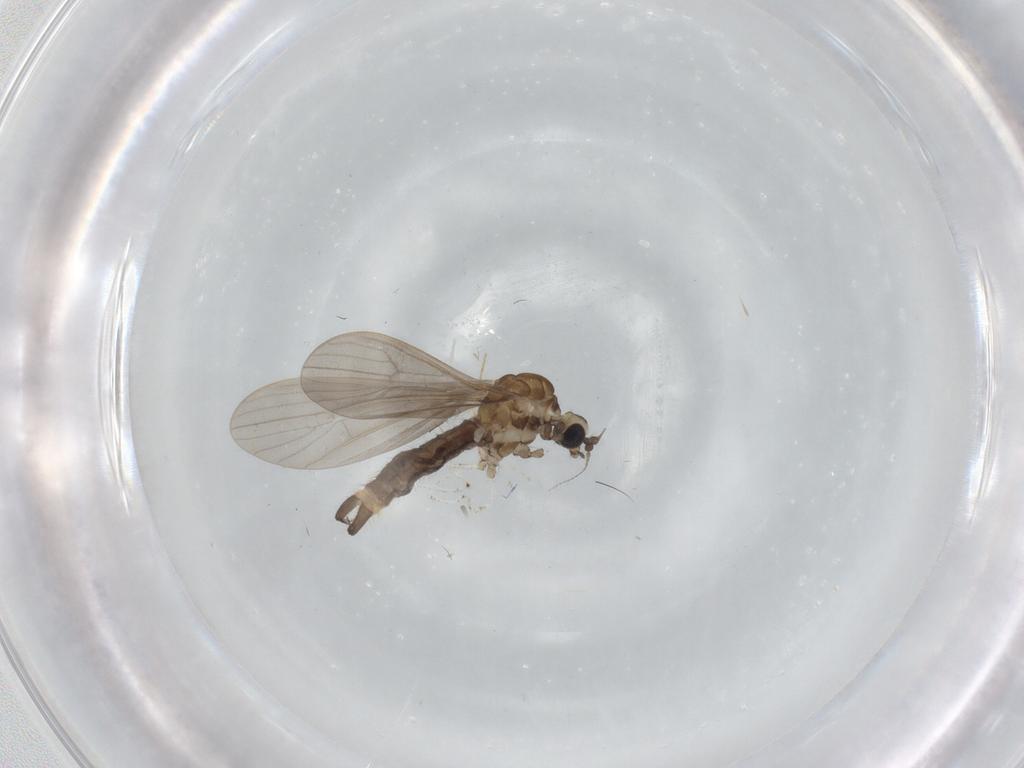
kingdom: Animalia
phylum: Arthropoda
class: Insecta
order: Diptera
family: Limoniidae
